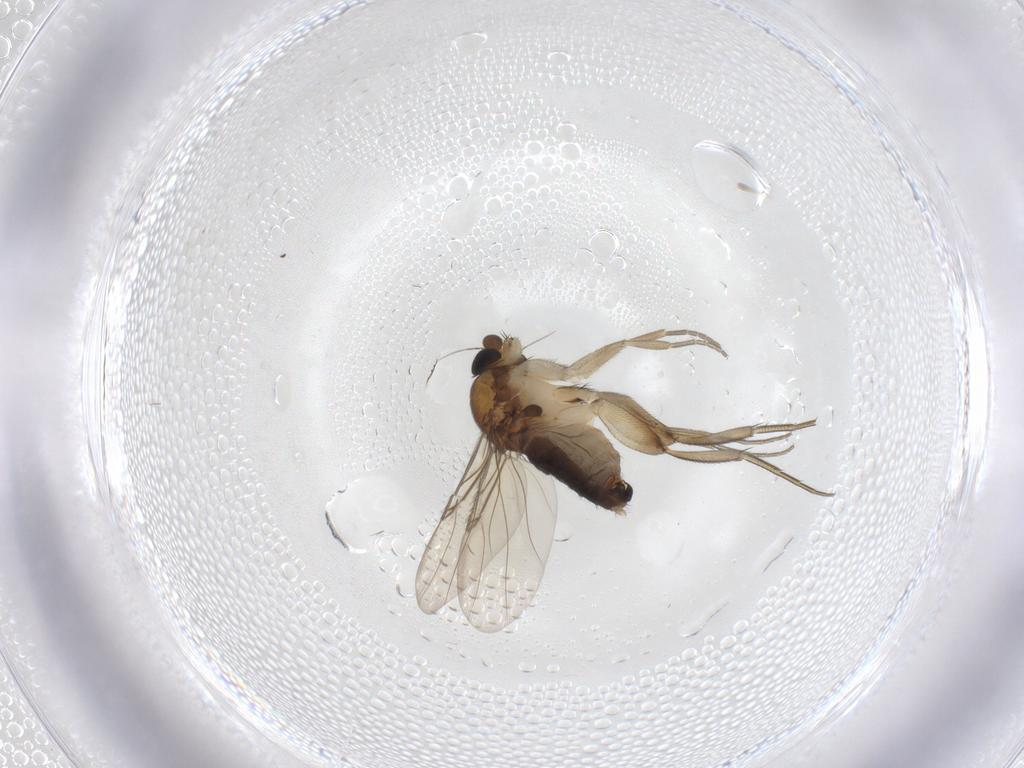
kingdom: Animalia
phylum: Arthropoda
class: Insecta
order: Diptera
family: Phoridae
